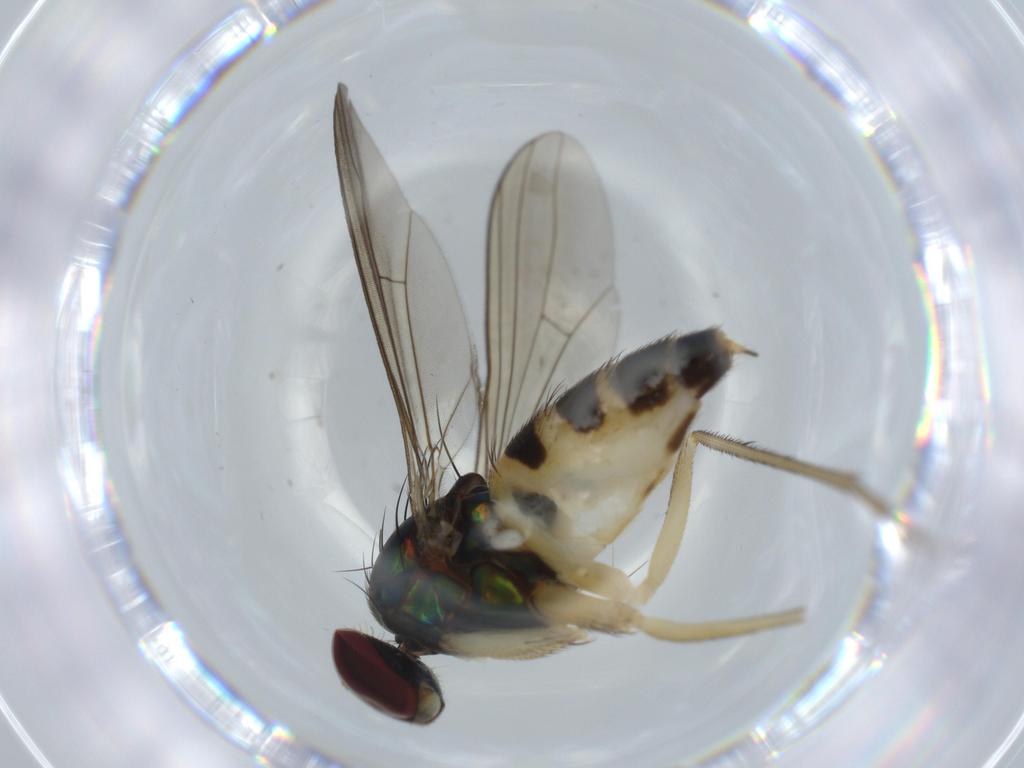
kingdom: Animalia
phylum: Arthropoda
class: Insecta
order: Diptera
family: Dolichopodidae
